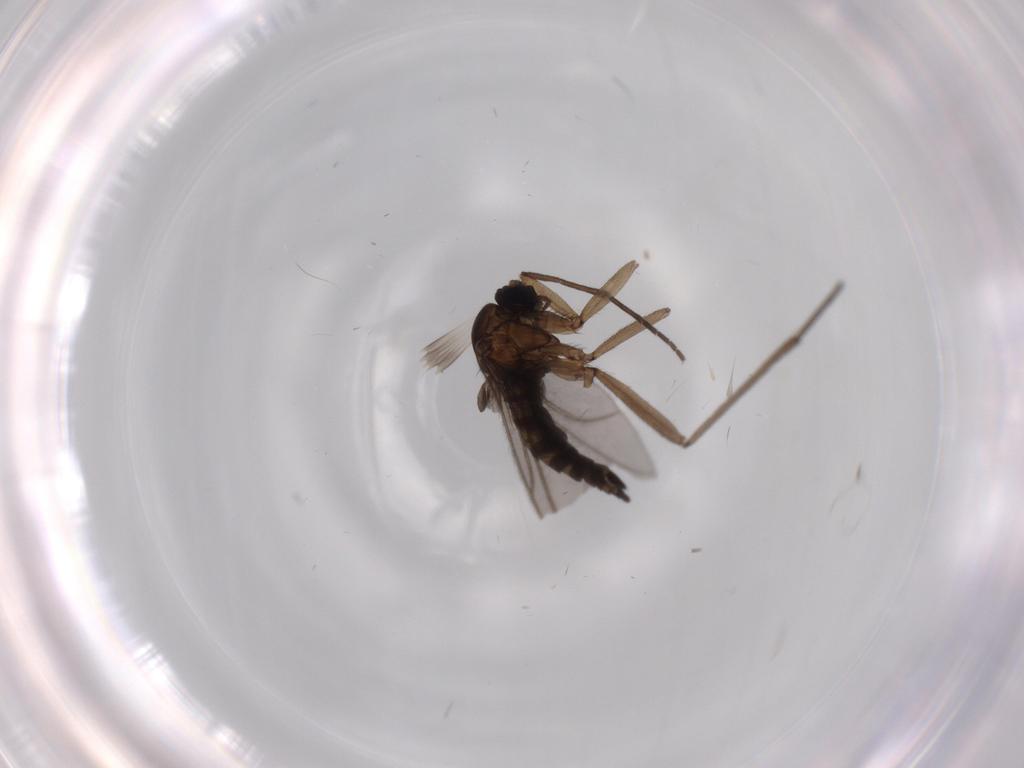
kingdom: Animalia
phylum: Arthropoda
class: Insecta
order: Diptera
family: Sciaridae
